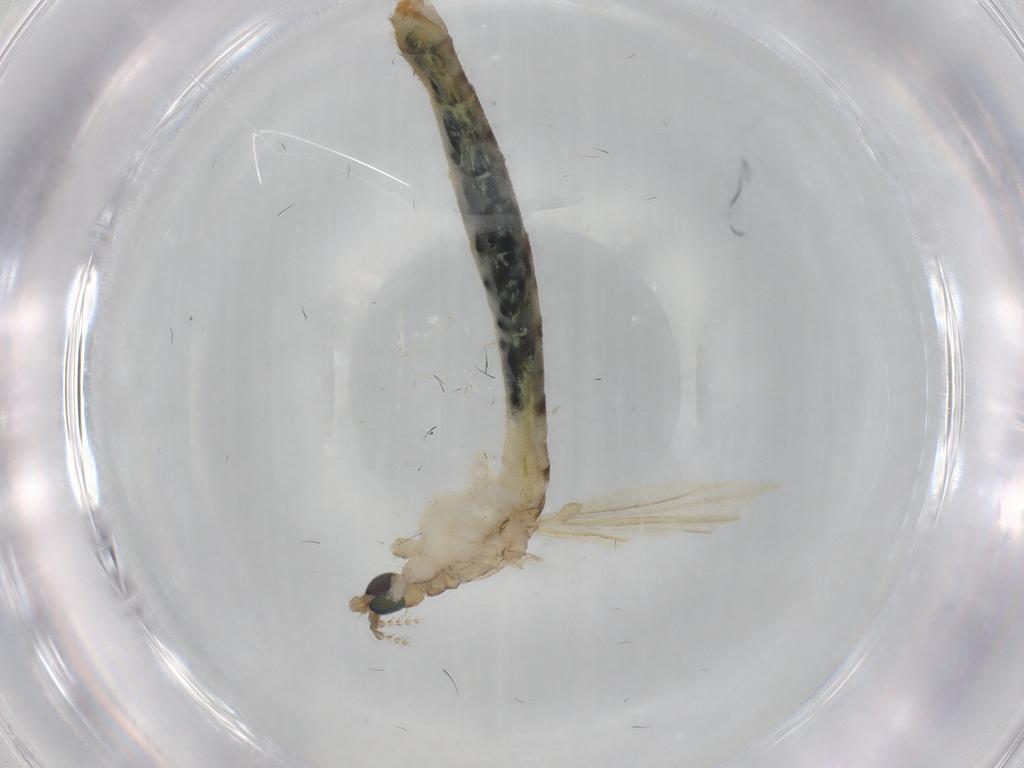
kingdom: Animalia
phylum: Arthropoda
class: Insecta
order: Diptera
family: Limoniidae
